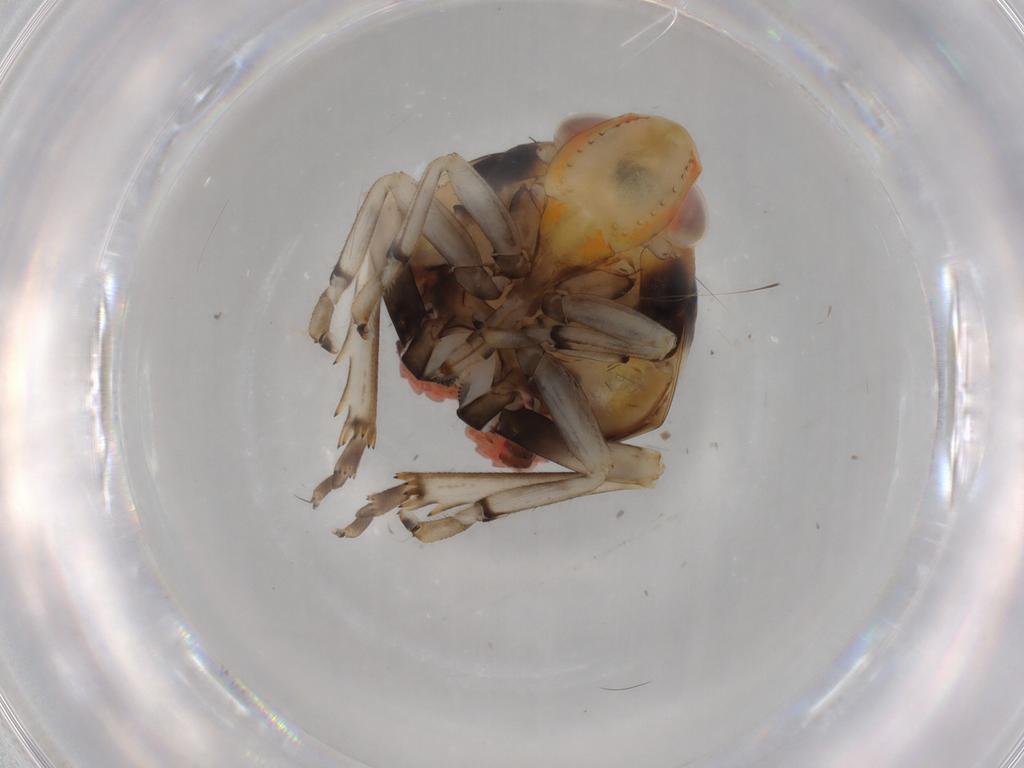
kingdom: Animalia
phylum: Arthropoda
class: Insecta
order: Hemiptera
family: Ricaniidae
